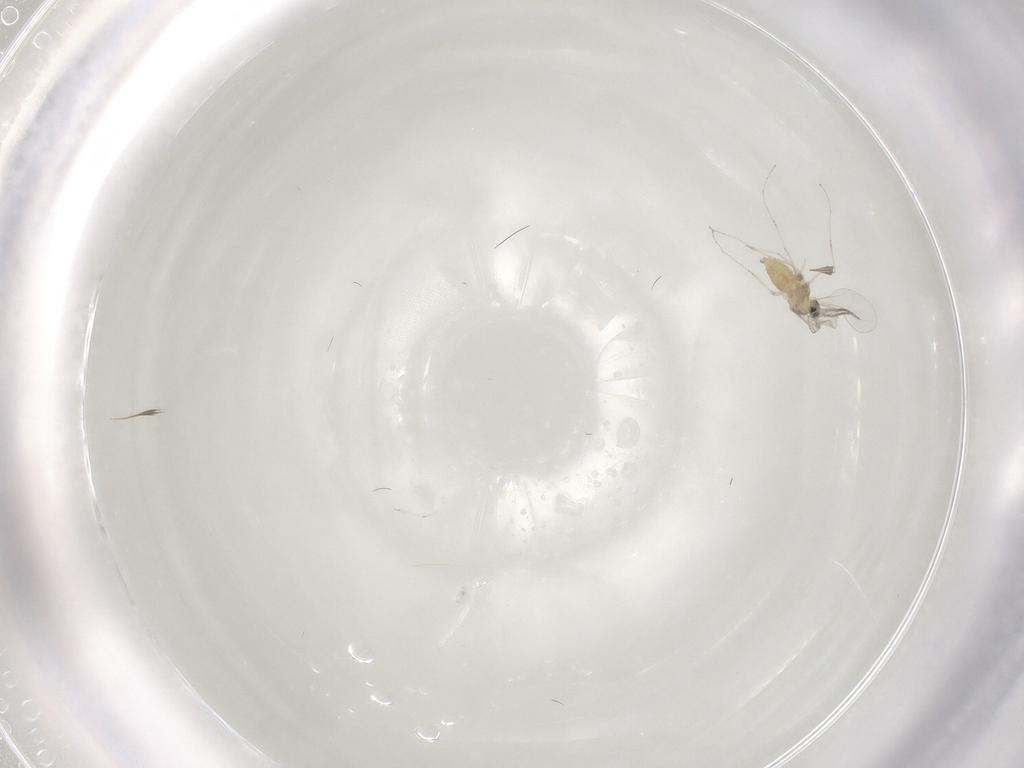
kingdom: Animalia
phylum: Arthropoda
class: Insecta
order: Diptera
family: Cecidomyiidae
